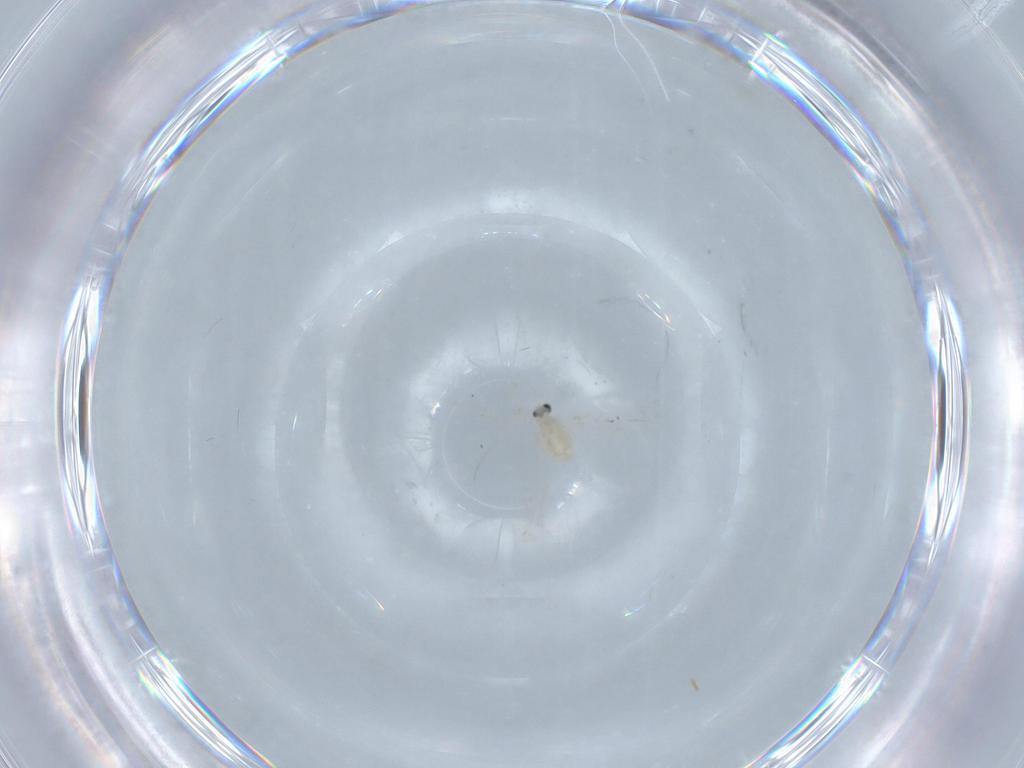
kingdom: Animalia
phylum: Arthropoda
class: Insecta
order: Diptera
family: Cecidomyiidae
